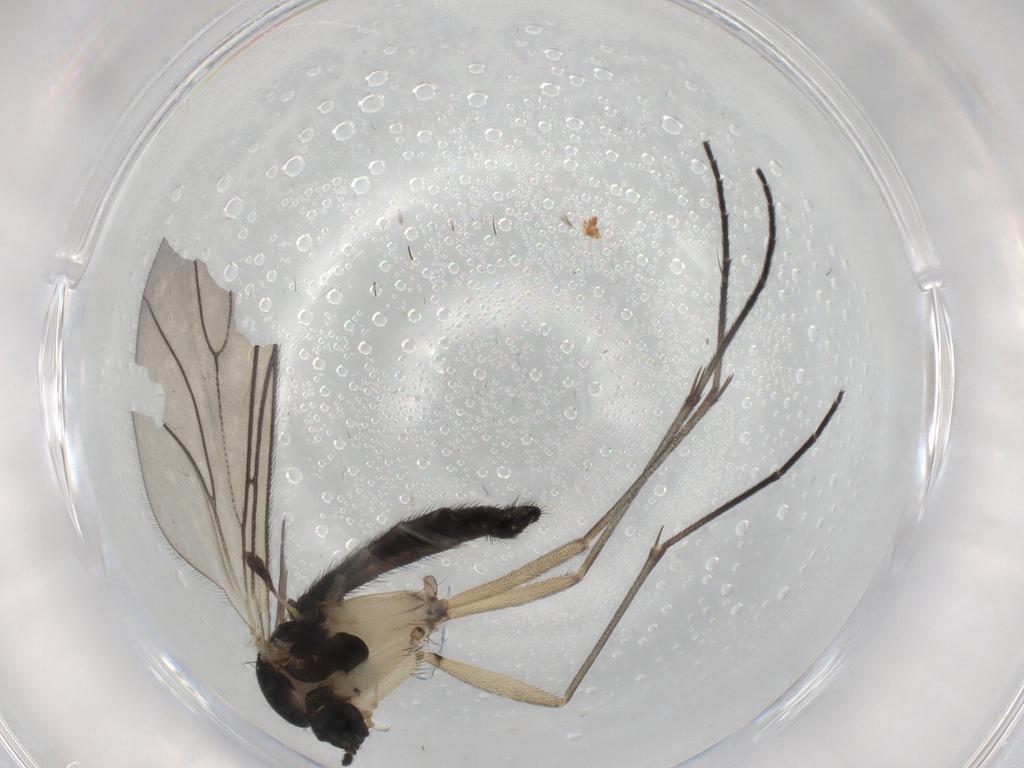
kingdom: Animalia
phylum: Arthropoda
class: Insecta
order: Diptera
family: Sciaridae
